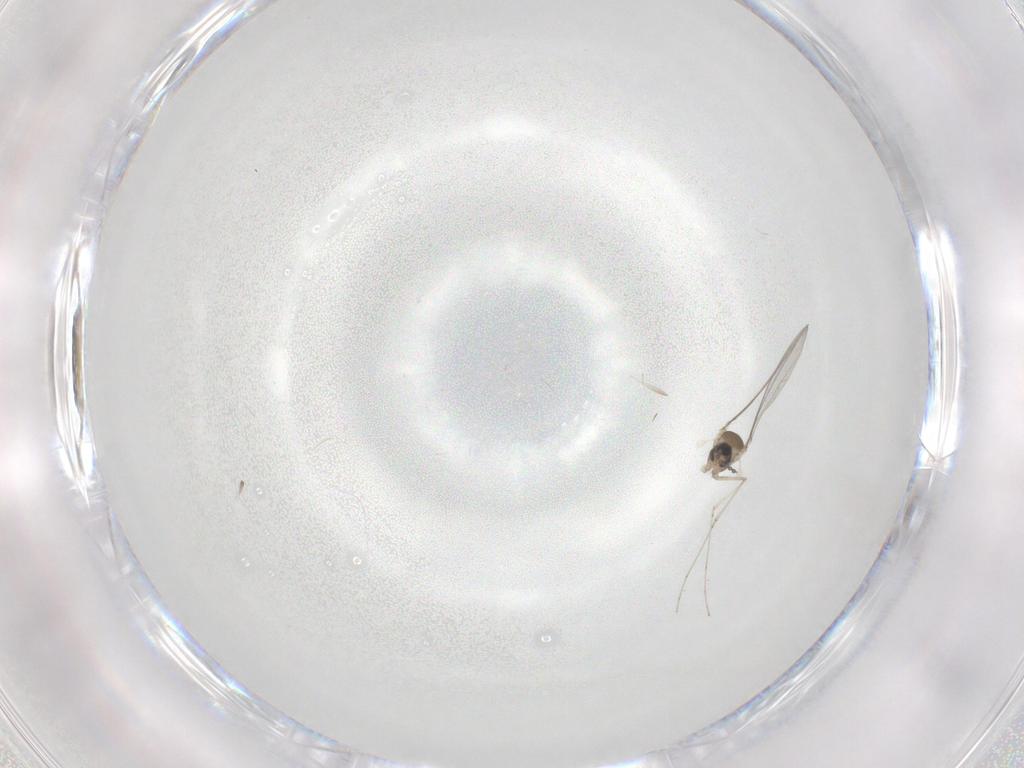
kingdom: Animalia
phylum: Arthropoda
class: Insecta
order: Diptera
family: Cecidomyiidae
